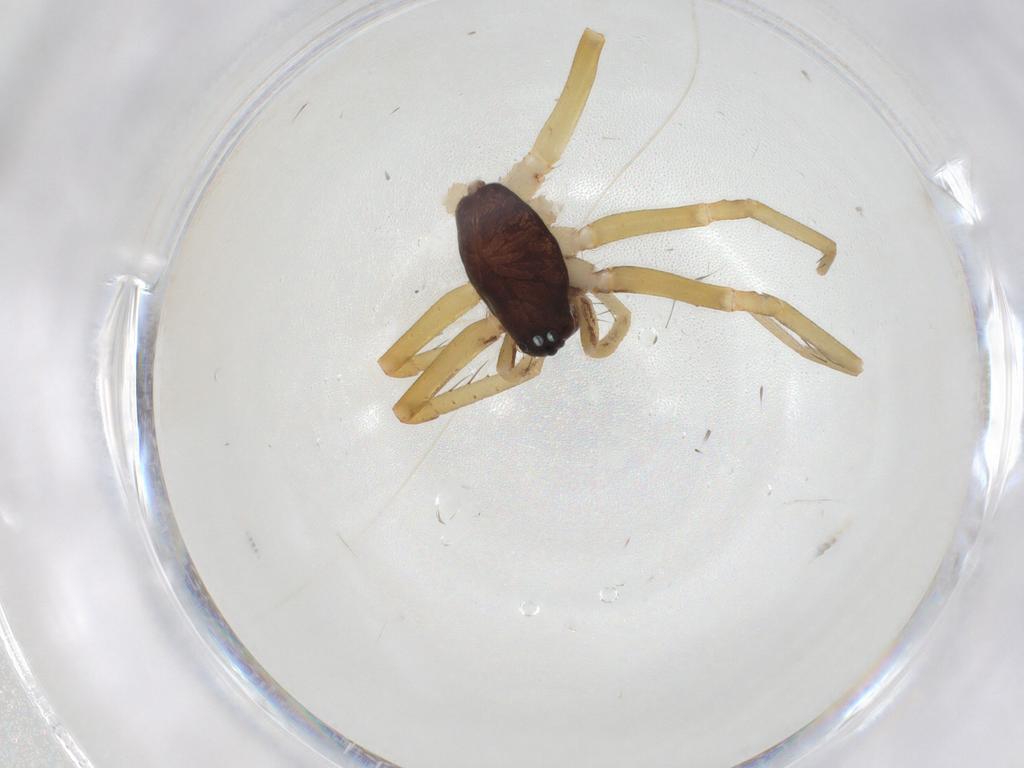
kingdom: Animalia
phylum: Arthropoda
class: Arachnida
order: Araneae
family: Corinnidae
